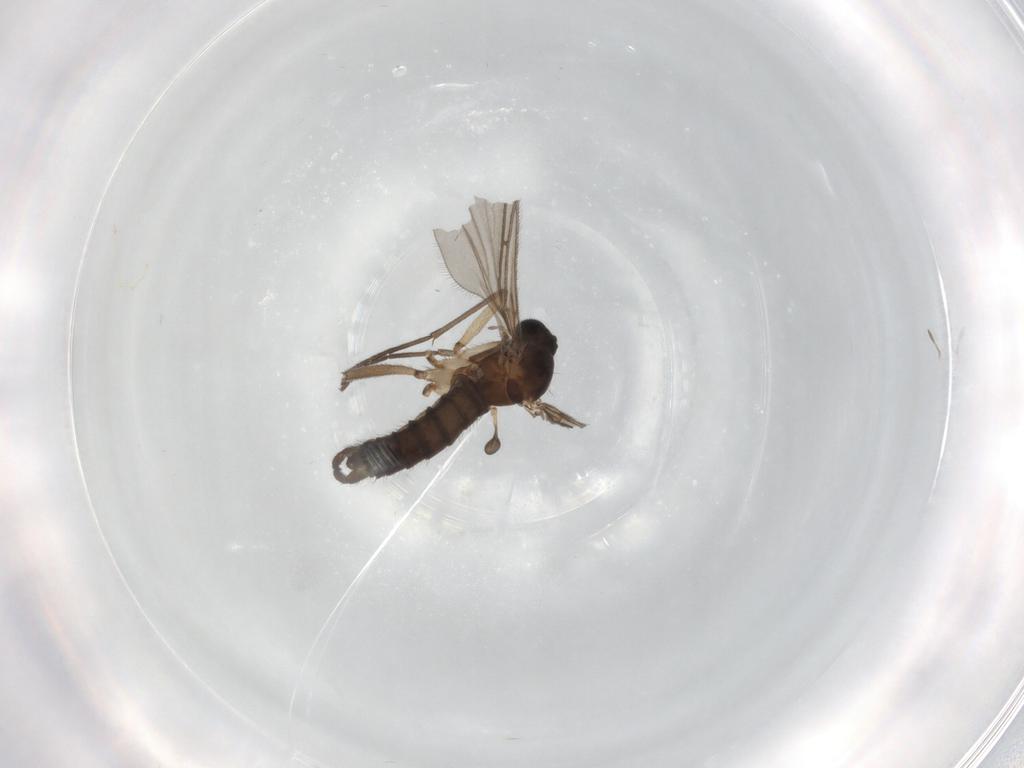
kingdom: Animalia
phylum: Arthropoda
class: Insecta
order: Diptera
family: Sciaridae
